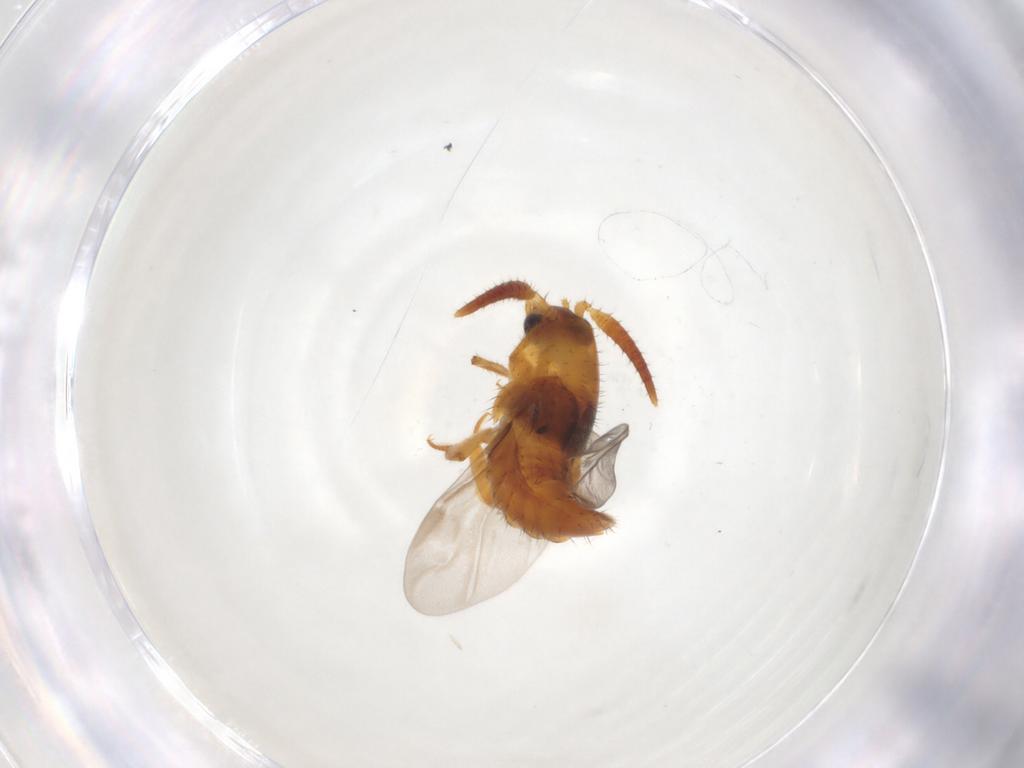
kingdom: Animalia
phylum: Arthropoda
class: Insecta
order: Coleoptera
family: Staphylinidae
